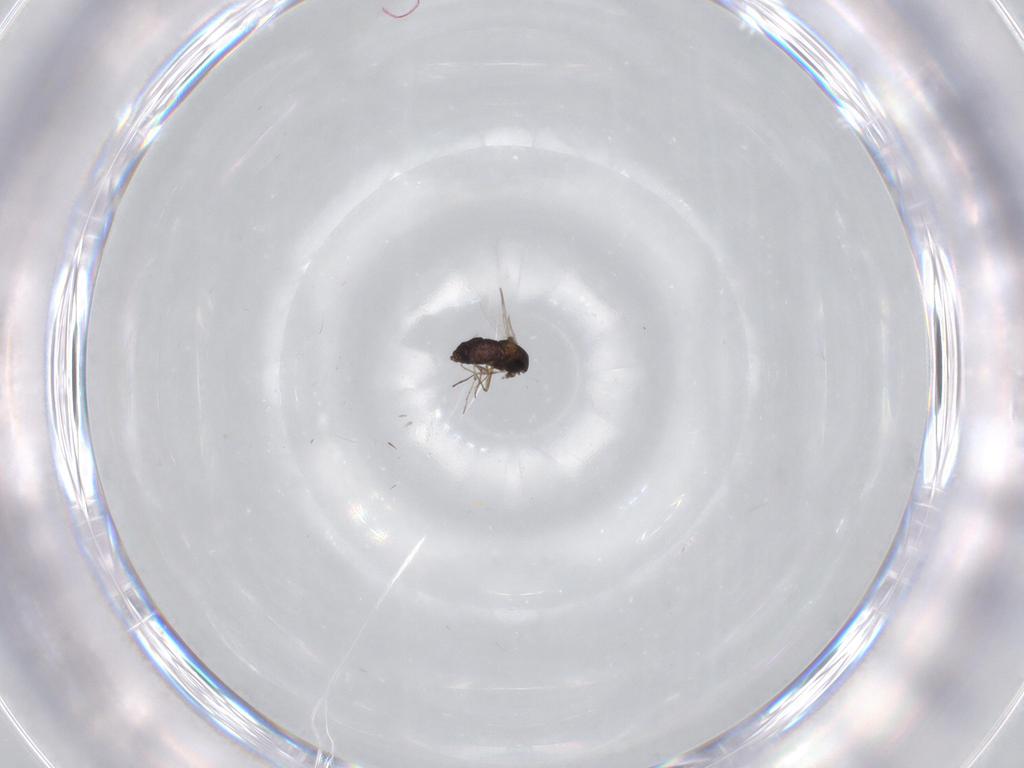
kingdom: Animalia
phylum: Arthropoda
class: Insecta
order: Diptera
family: Chironomidae
